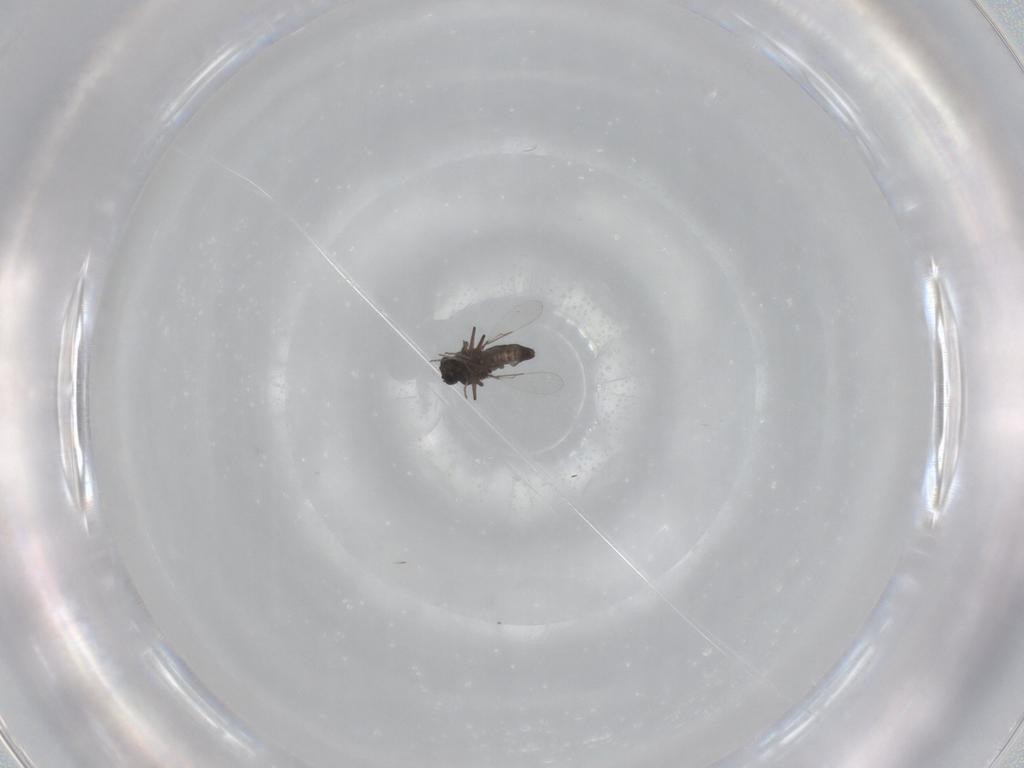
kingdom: Animalia
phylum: Arthropoda
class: Insecta
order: Diptera
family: Ceratopogonidae
